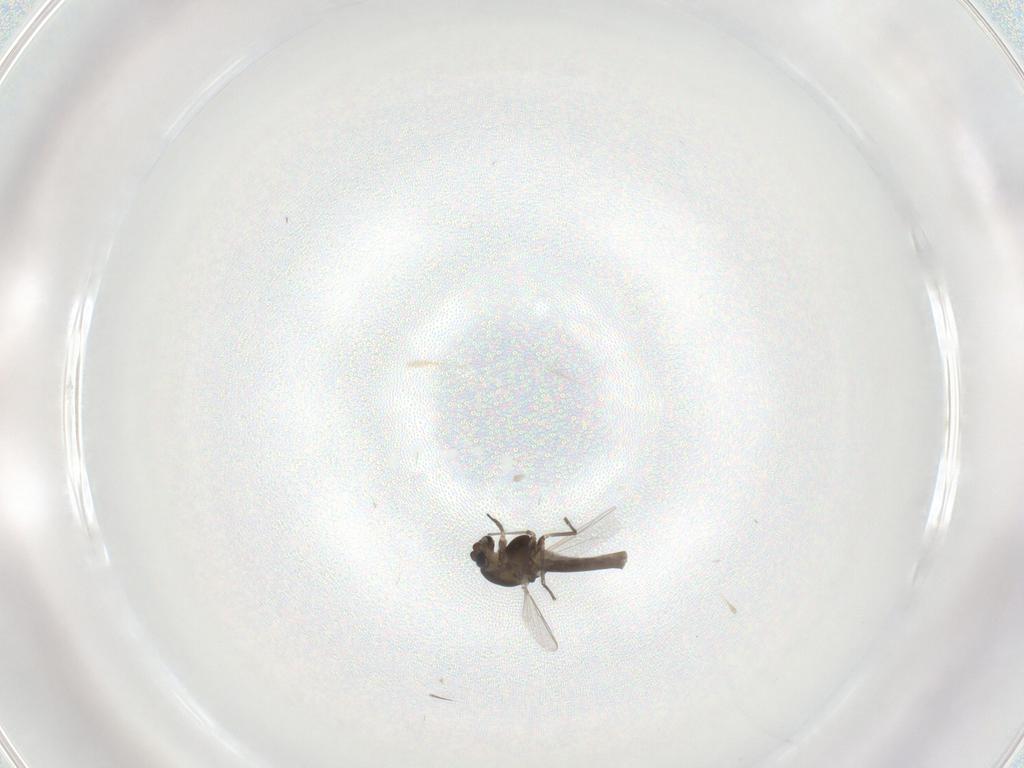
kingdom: Animalia
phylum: Arthropoda
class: Insecta
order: Diptera
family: Chironomidae
